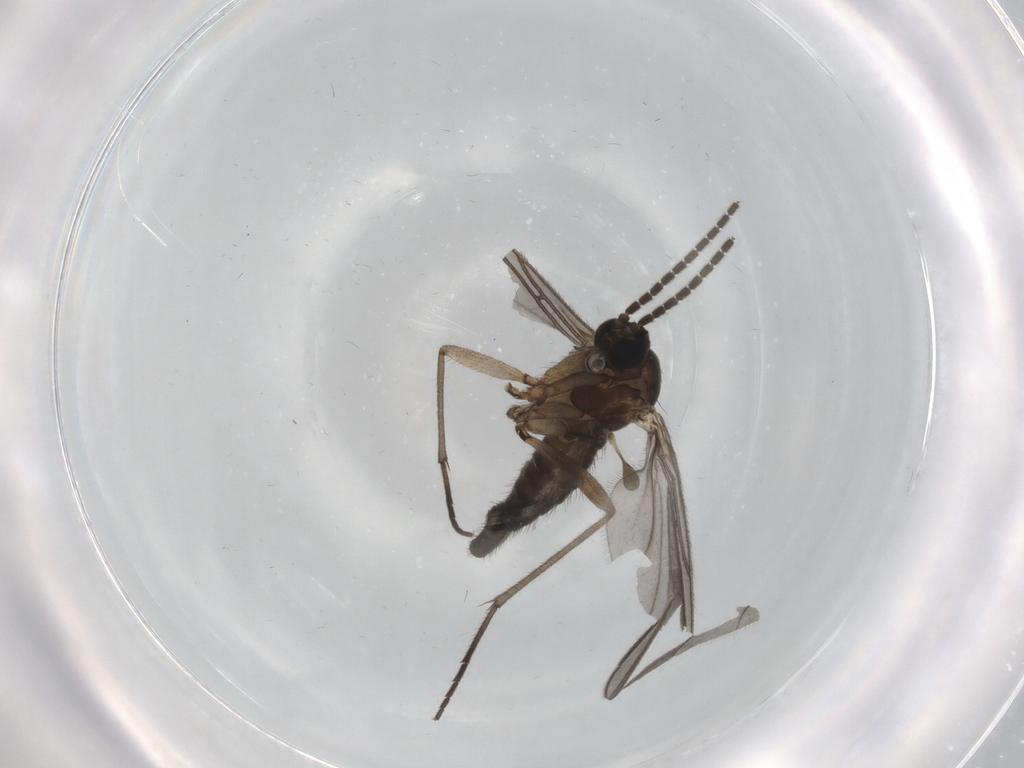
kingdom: Animalia
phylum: Arthropoda
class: Insecta
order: Diptera
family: Sciaridae
